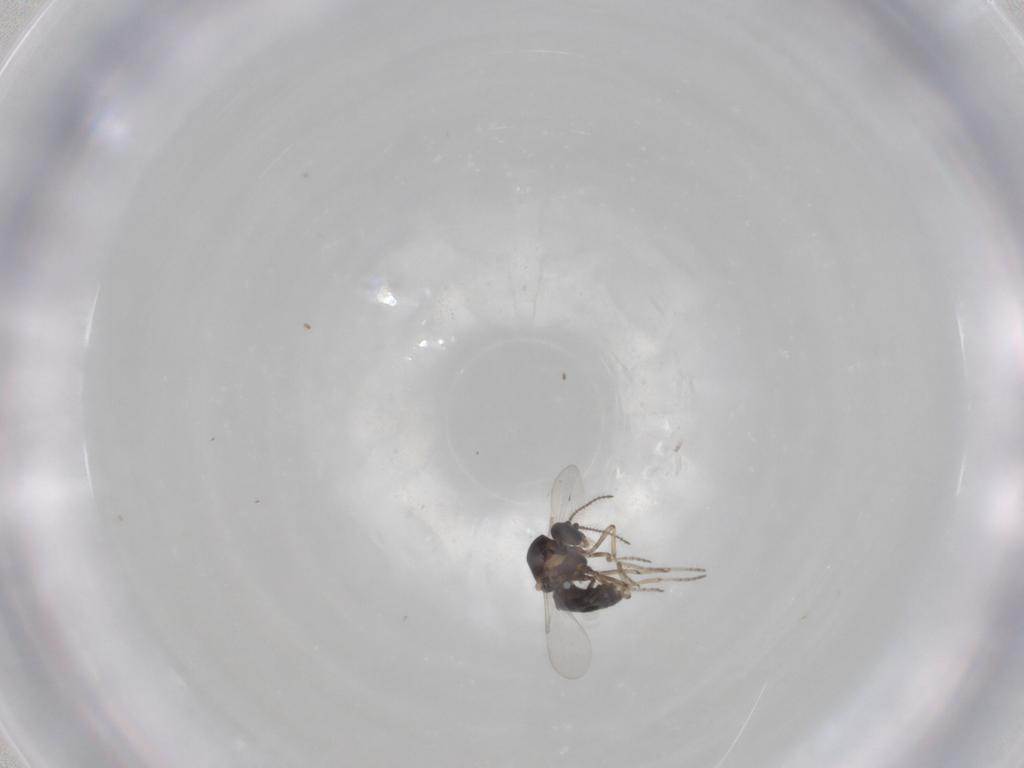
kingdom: Animalia
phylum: Arthropoda
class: Insecta
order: Diptera
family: Ceratopogonidae
